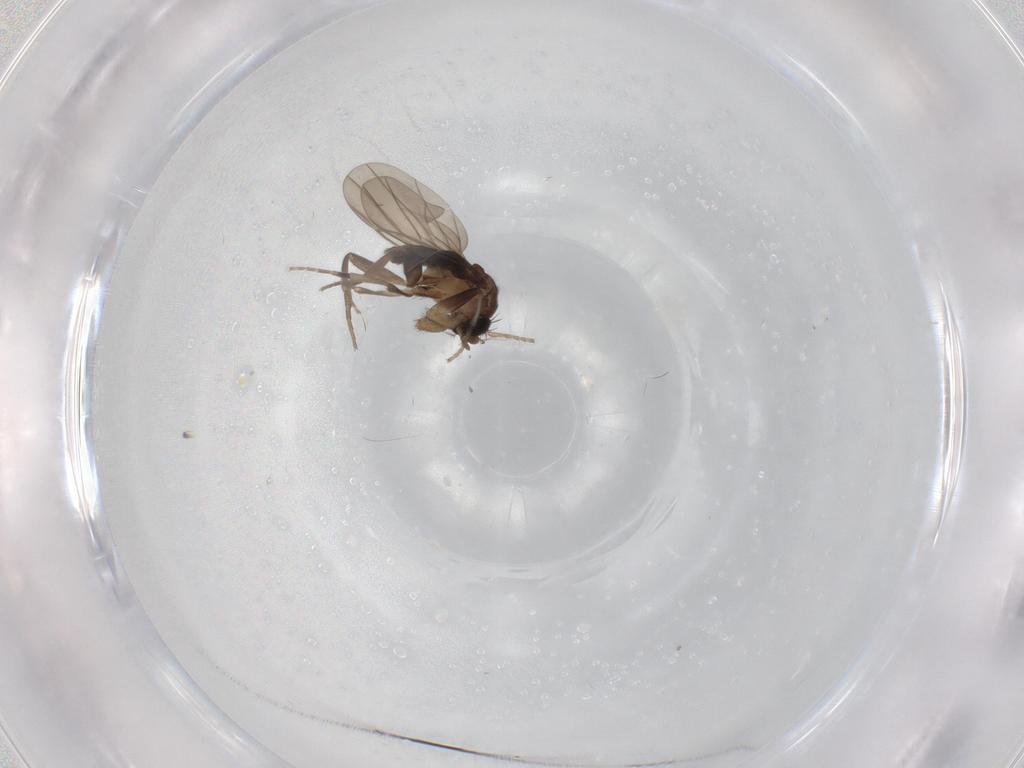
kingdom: Animalia
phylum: Arthropoda
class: Insecta
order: Diptera
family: Phoridae
